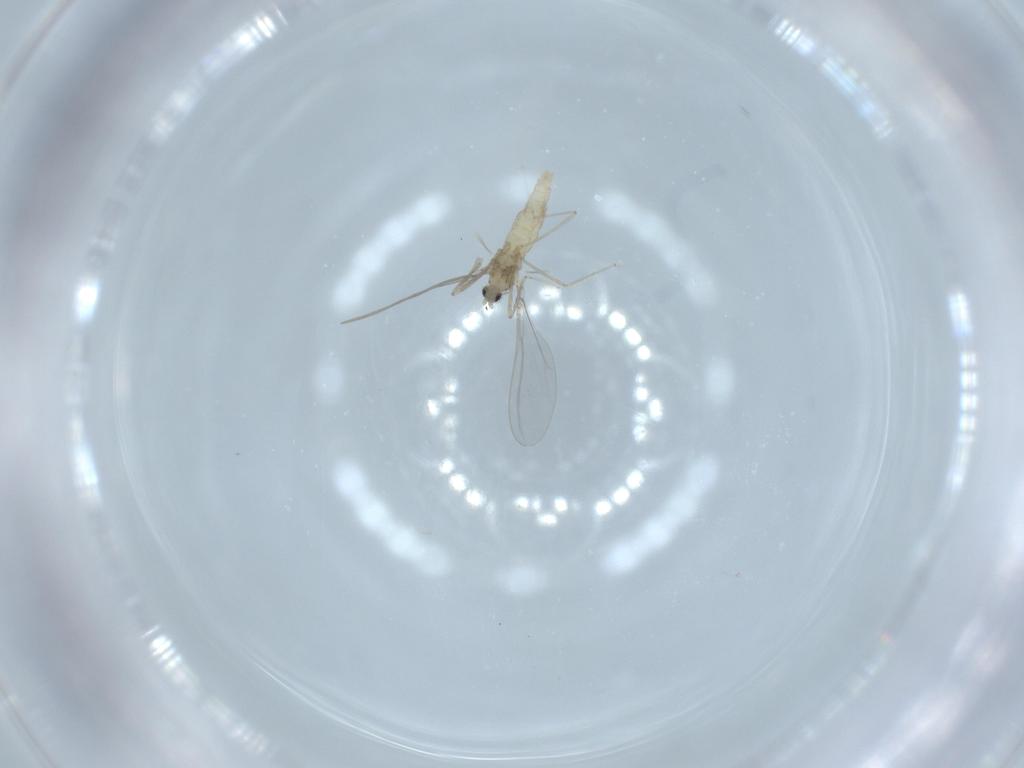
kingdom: Animalia
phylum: Arthropoda
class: Insecta
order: Diptera
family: Cecidomyiidae
